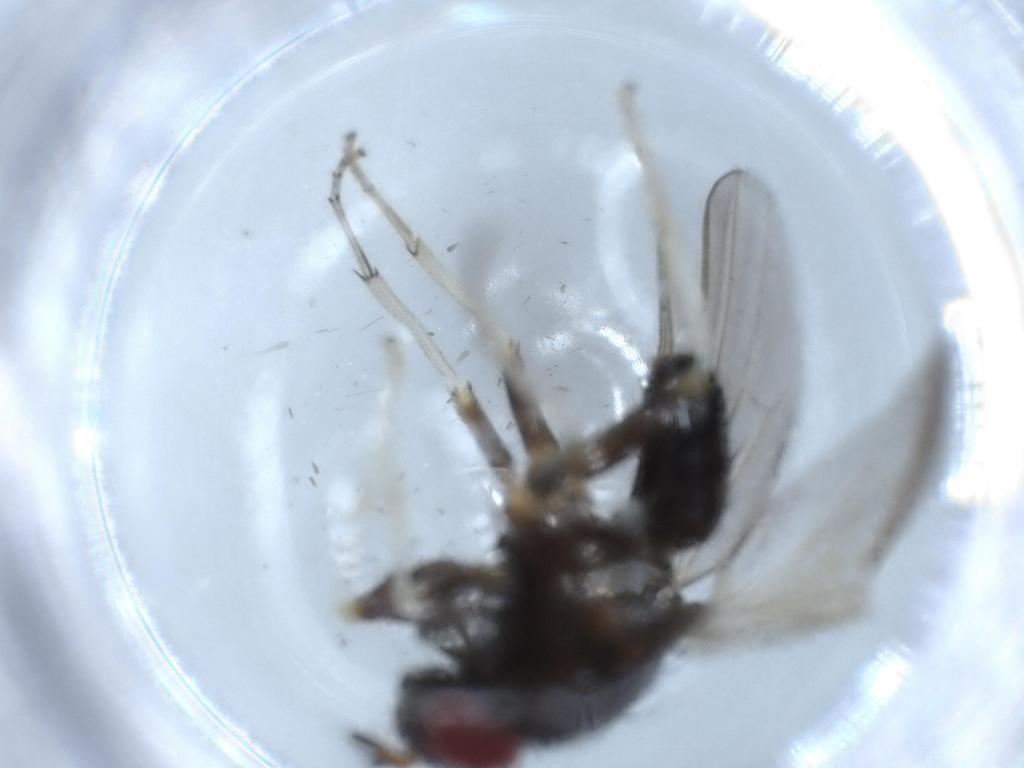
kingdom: Animalia
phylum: Arthropoda
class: Insecta
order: Diptera
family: Lauxaniidae
